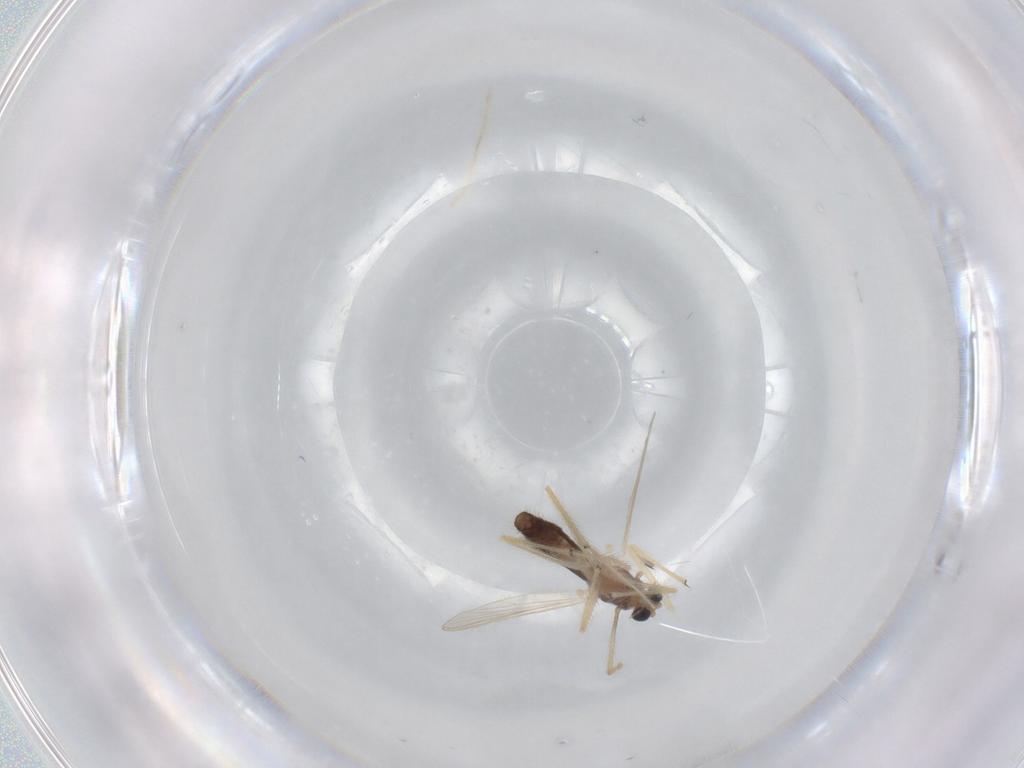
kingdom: Animalia
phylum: Arthropoda
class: Insecta
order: Diptera
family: Chironomidae
